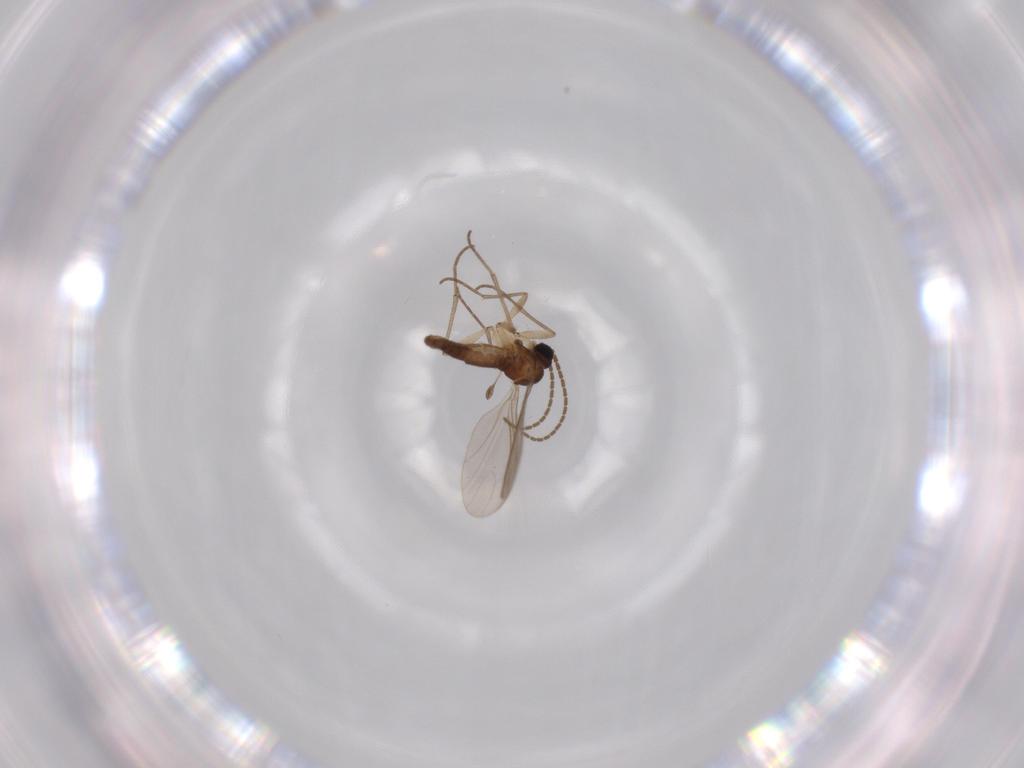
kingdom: Animalia
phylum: Arthropoda
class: Insecta
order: Diptera
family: Sciaridae
